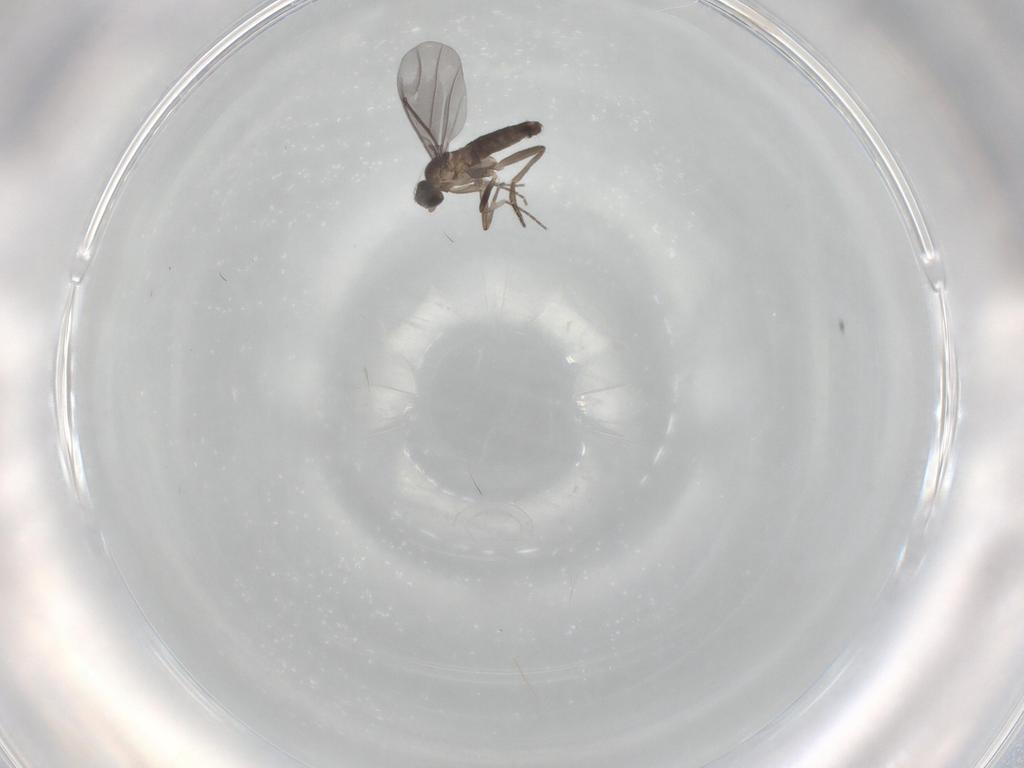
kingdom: Animalia
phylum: Arthropoda
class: Insecta
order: Diptera
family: Phoridae
